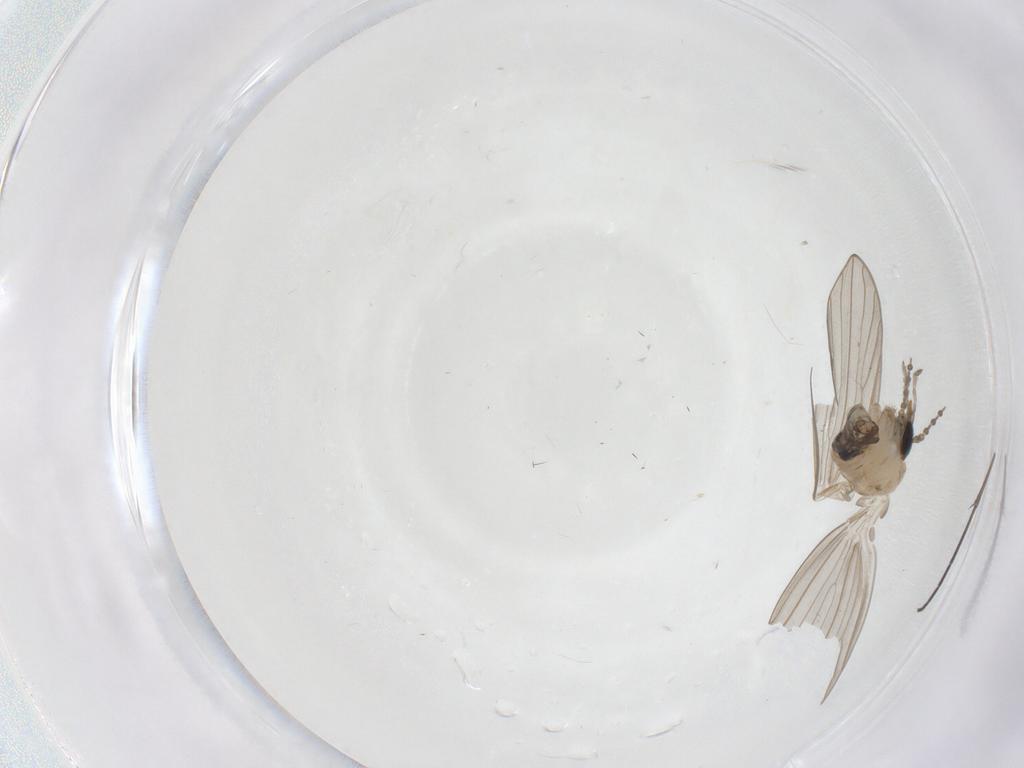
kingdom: Animalia
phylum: Arthropoda
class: Insecta
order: Diptera
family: Psychodidae
